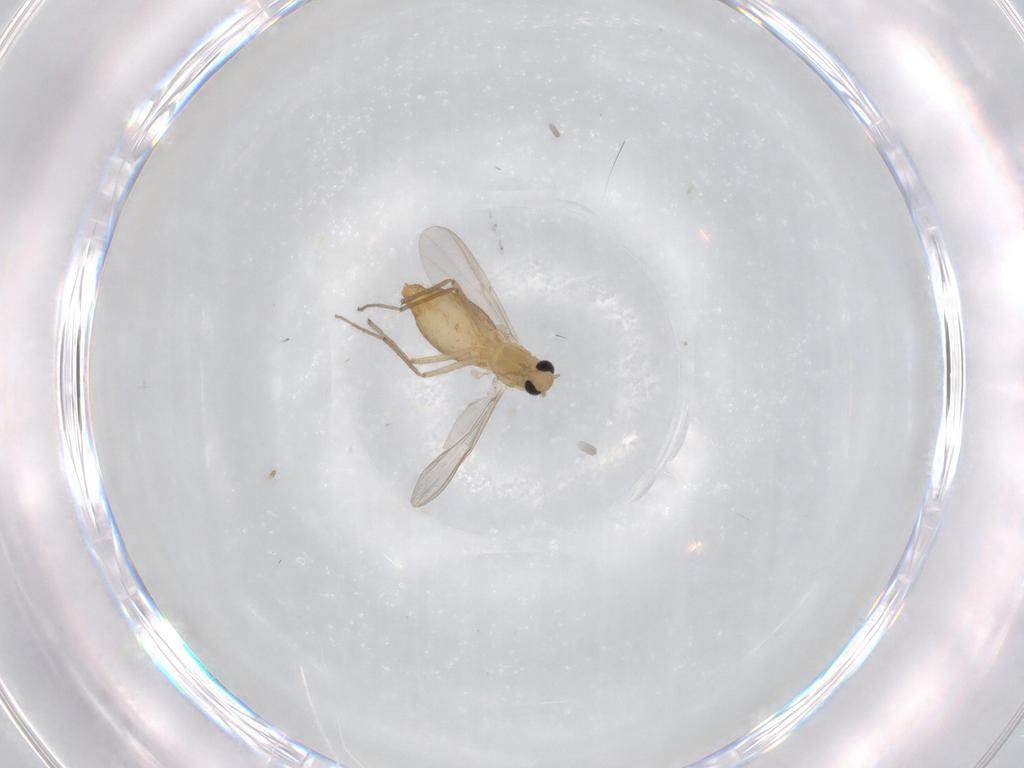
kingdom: Animalia
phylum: Arthropoda
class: Insecta
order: Diptera
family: Chironomidae
